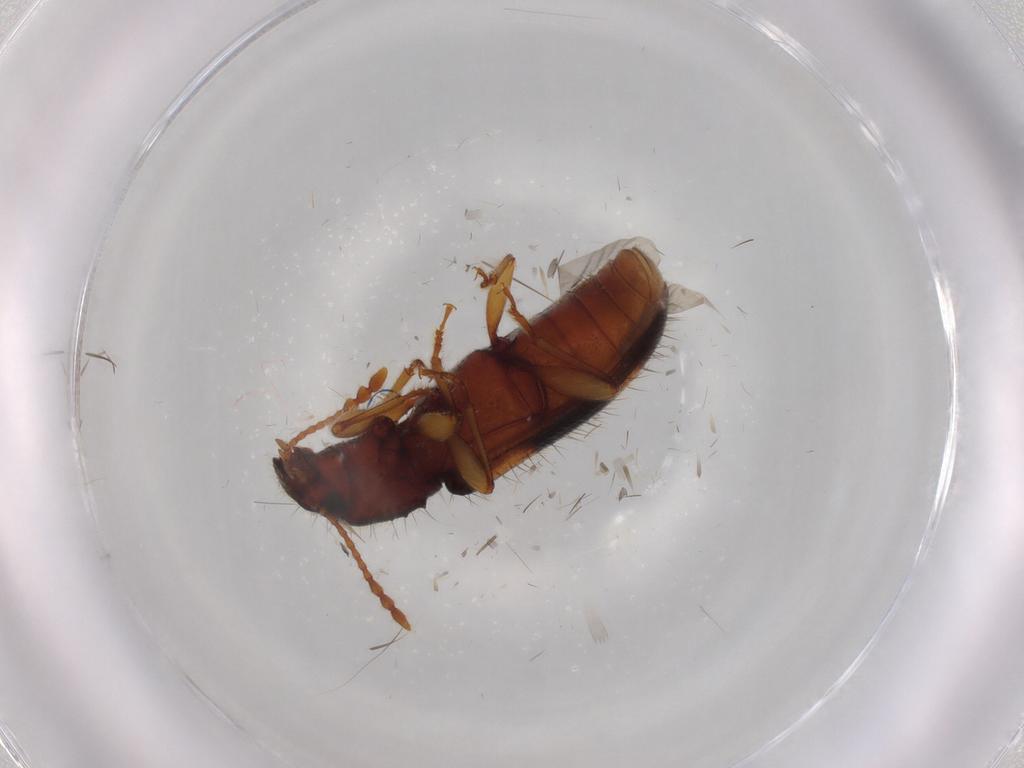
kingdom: Animalia
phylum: Arthropoda
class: Insecta
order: Coleoptera
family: Silvanidae
